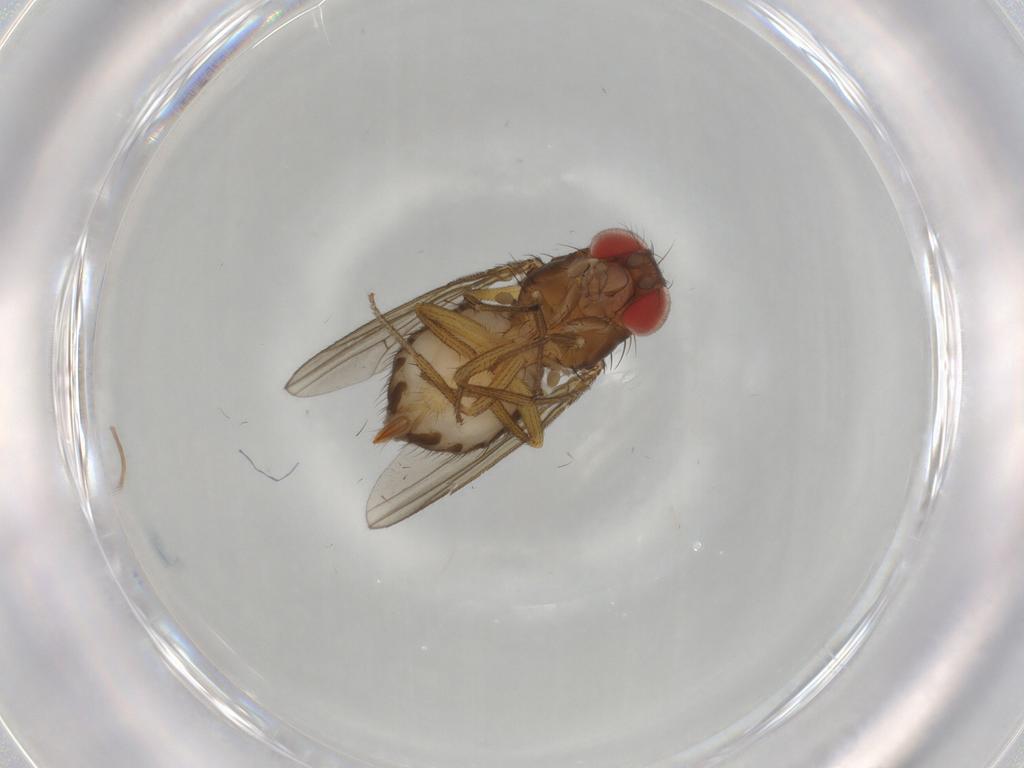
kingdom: Animalia
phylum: Arthropoda
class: Insecta
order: Diptera
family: Drosophilidae
